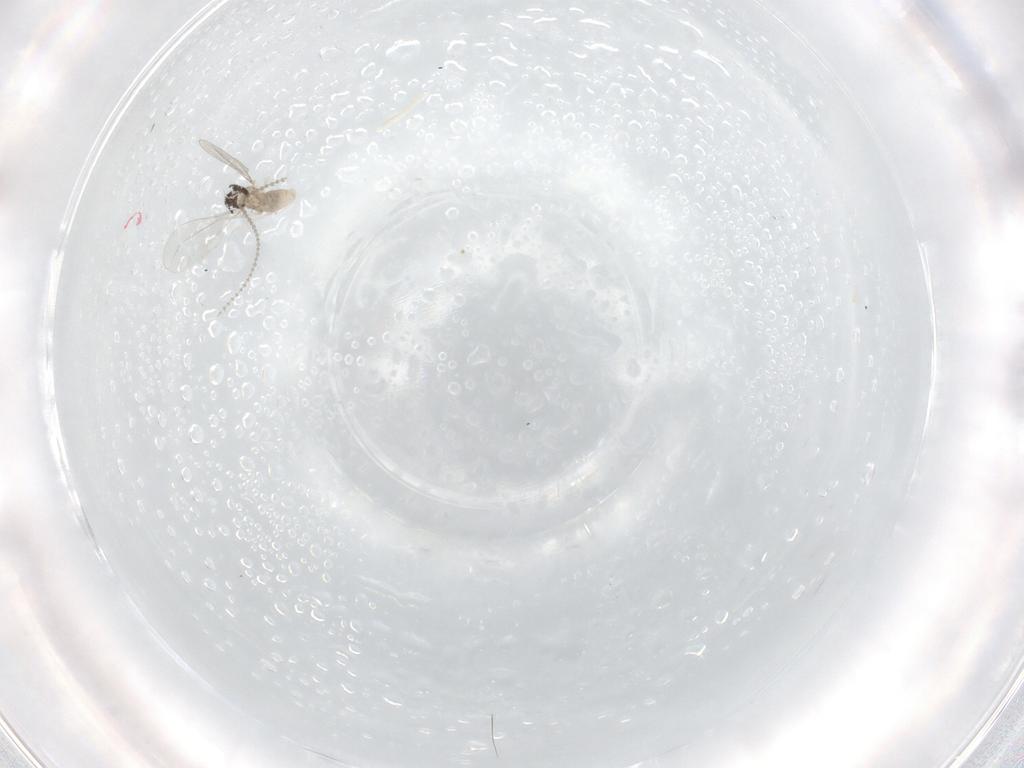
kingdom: Animalia
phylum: Arthropoda
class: Insecta
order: Diptera
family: Cecidomyiidae
